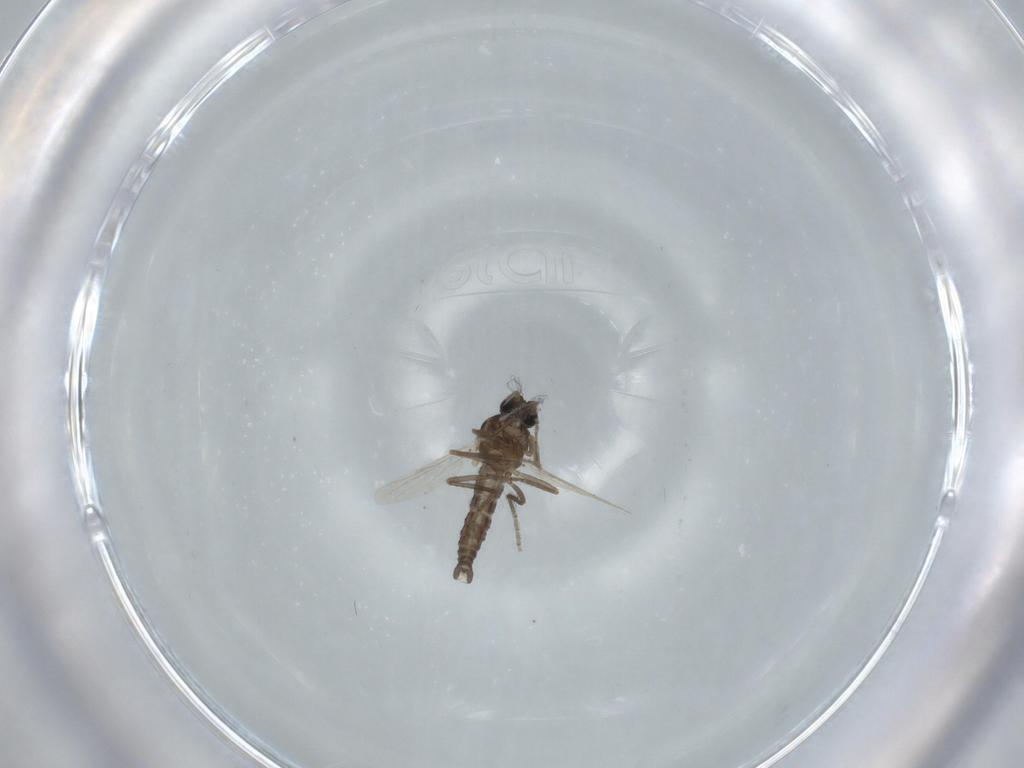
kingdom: Animalia
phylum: Arthropoda
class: Insecta
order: Diptera
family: Ceratopogonidae
